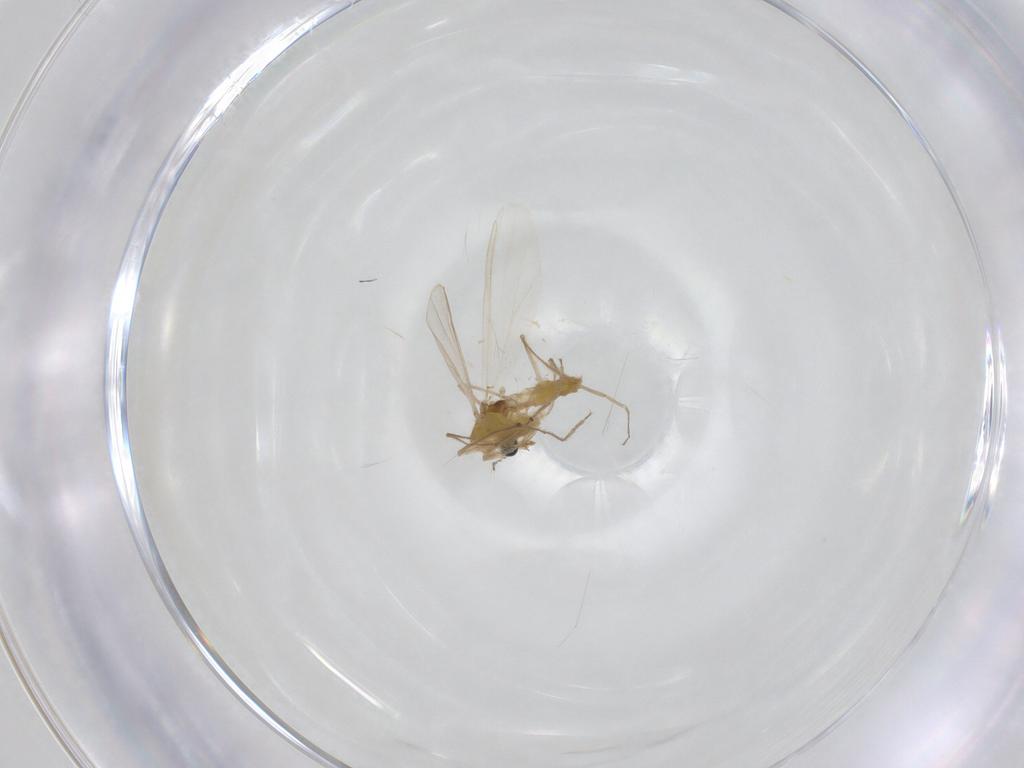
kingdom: Animalia
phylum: Arthropoda
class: Insecta
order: Diptera
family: Chironomidae
